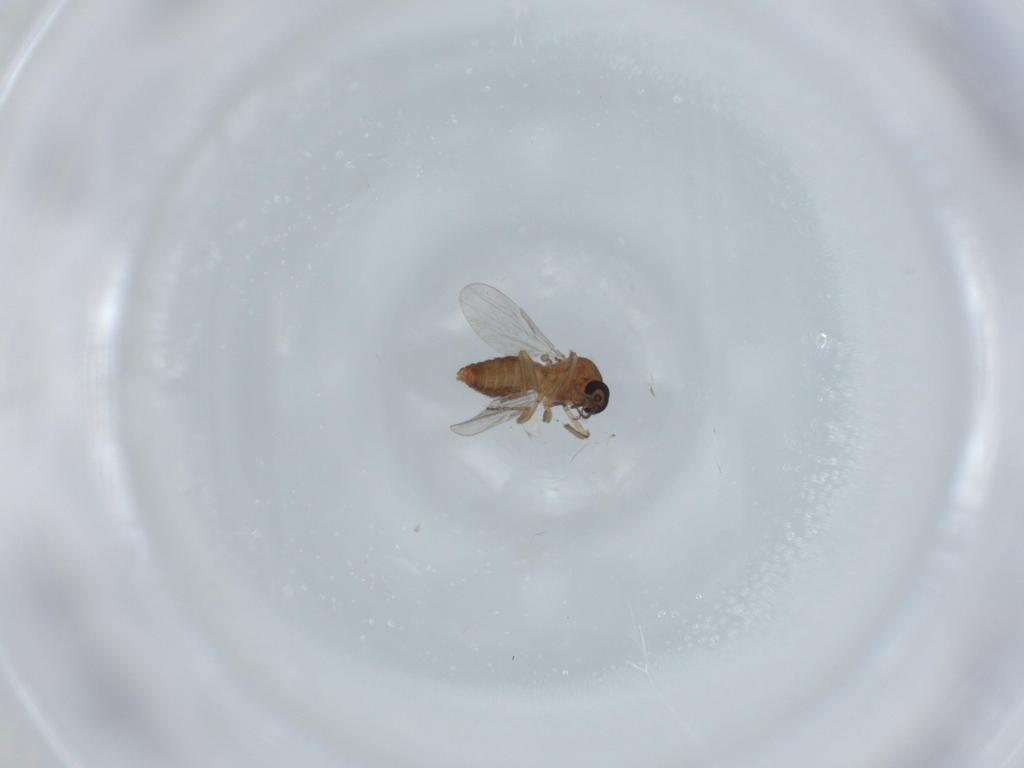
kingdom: Animalia
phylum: Arthropoda
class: Insecta
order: Diptera
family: Ceratopogonidae
